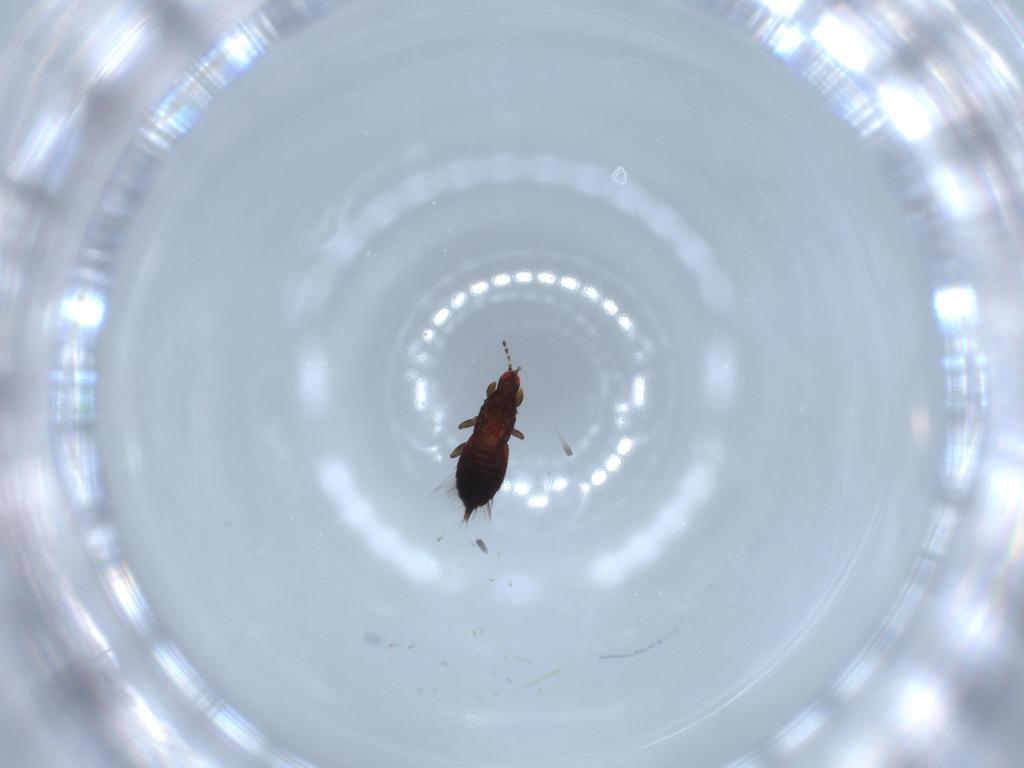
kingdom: Animalia
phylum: Arthropoda
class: Insecta
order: Thysanoptera
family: Phlaeothripidae
